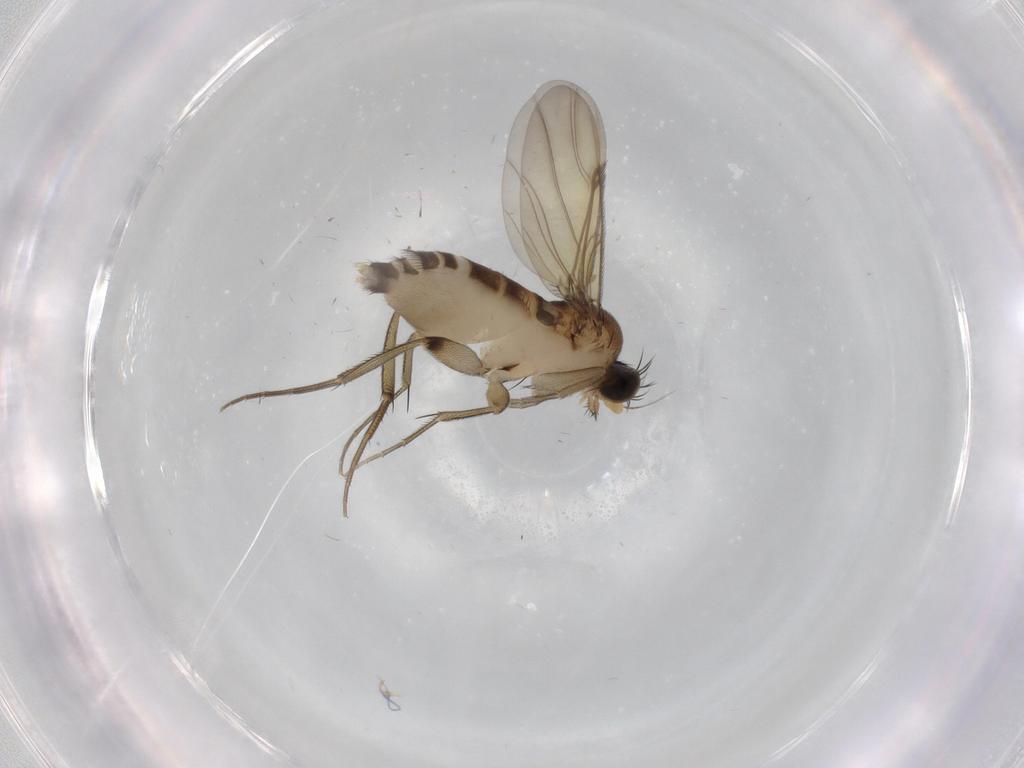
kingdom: Animalia
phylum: Arthropoda
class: Insecta
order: Diptera
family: Phoridae
